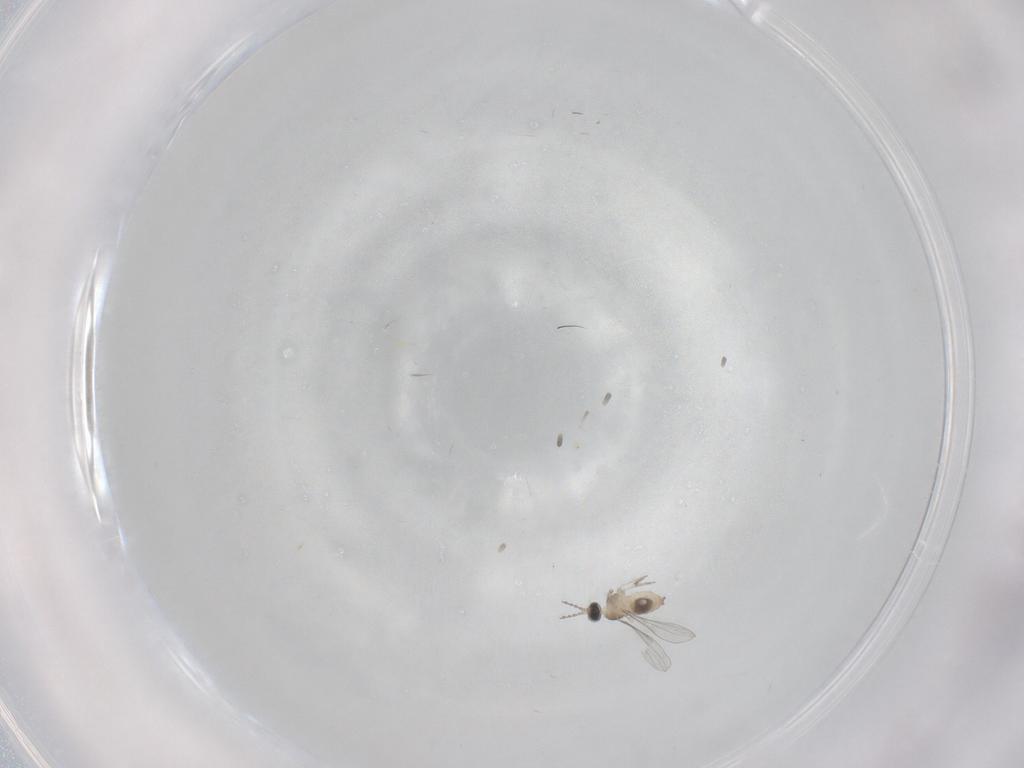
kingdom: Animalia
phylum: Arthropoda
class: Insecta
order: Diptera
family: Cecidomyiidae
